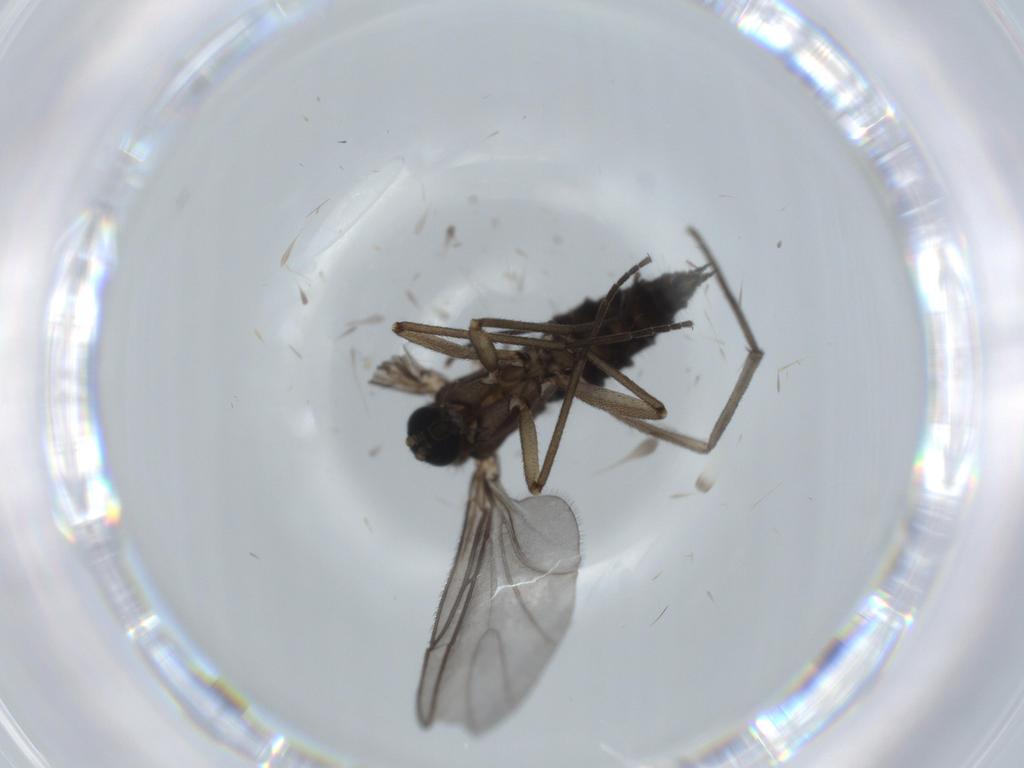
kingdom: Animalia
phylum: Arthropoda
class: Insecta
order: Diptera
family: Sciaridae
